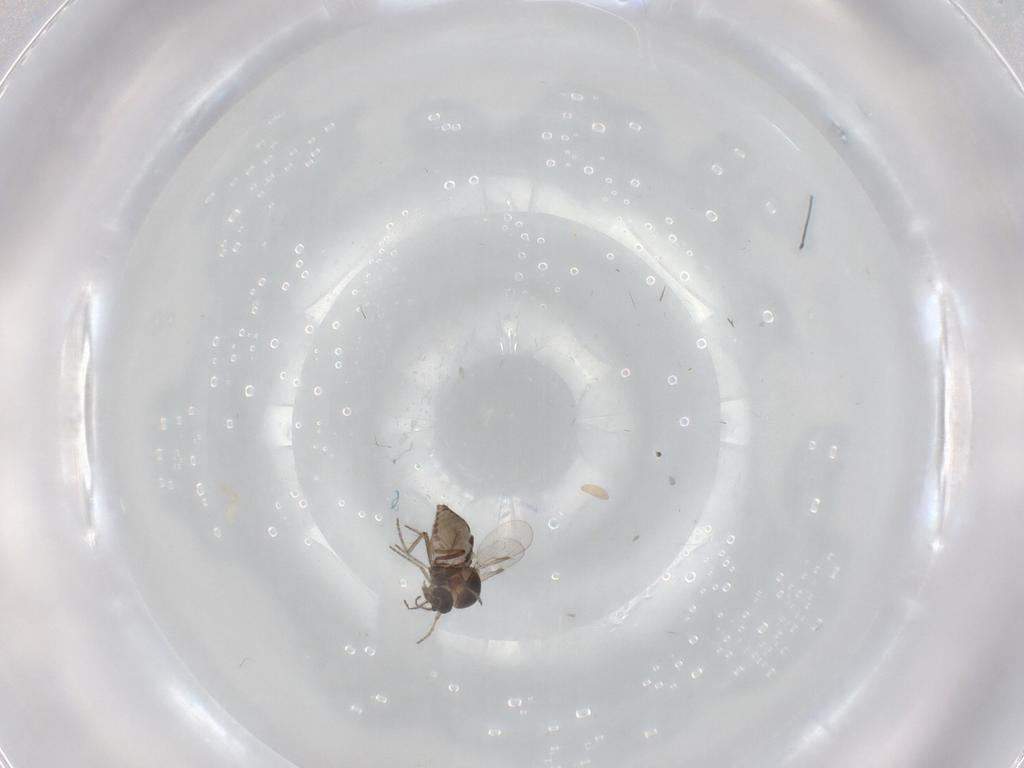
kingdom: Animalia
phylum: Arthropoda
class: Insecta
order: Diptera
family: Ceratopogonidae
